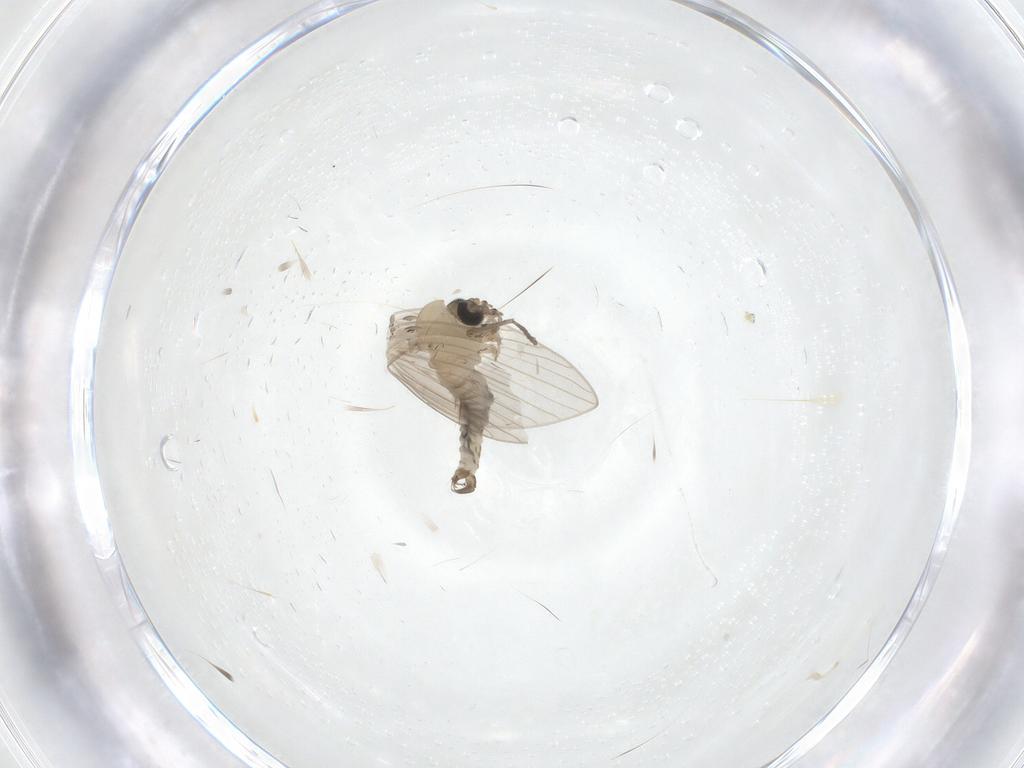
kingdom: Animalia
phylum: Arthropoda
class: Insecta
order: Diptera
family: Psychodidae
